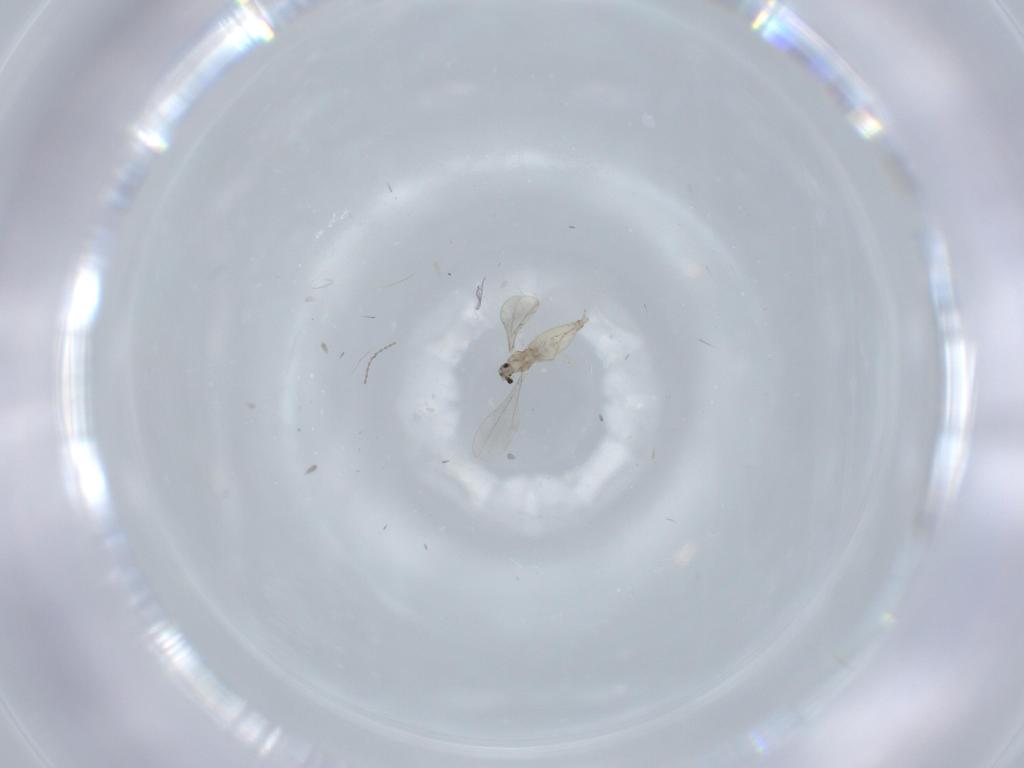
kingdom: Animalia
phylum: Arthropoda
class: Insecta
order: Diptera
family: Cecidomyiidae
